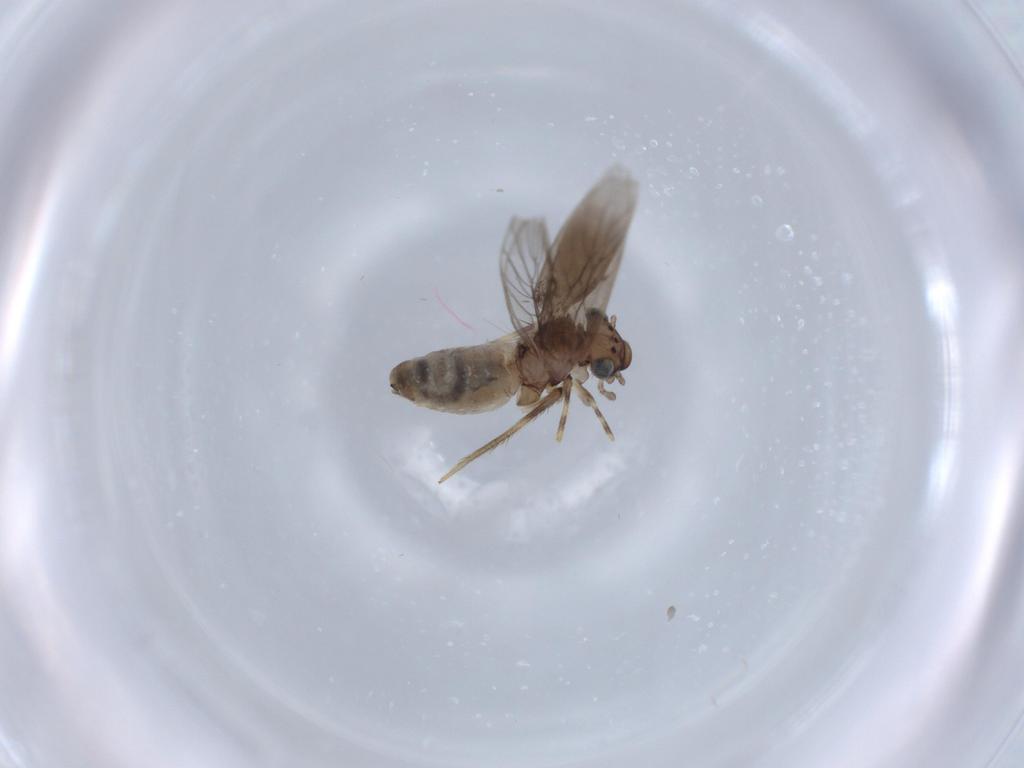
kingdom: Animalia
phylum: Arthropoda
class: Insecta
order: Psocodea
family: Lepidopsocidae
